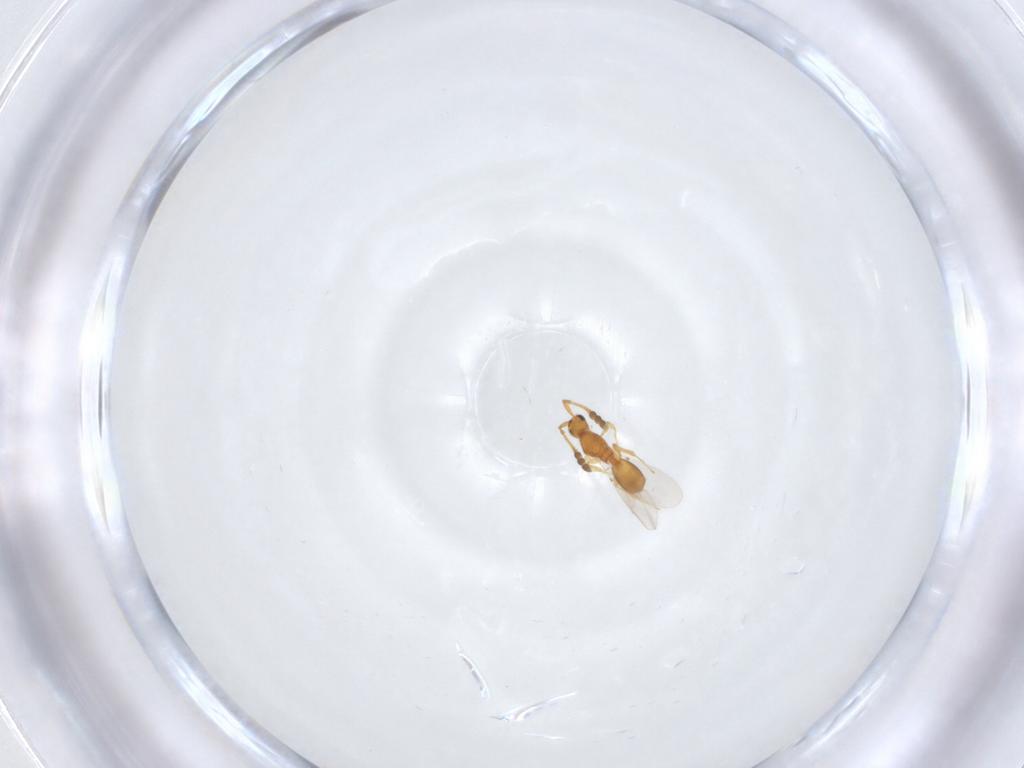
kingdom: Animalia
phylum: Arthropoda
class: Insecta
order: Hymenoptera
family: Diapriidae
